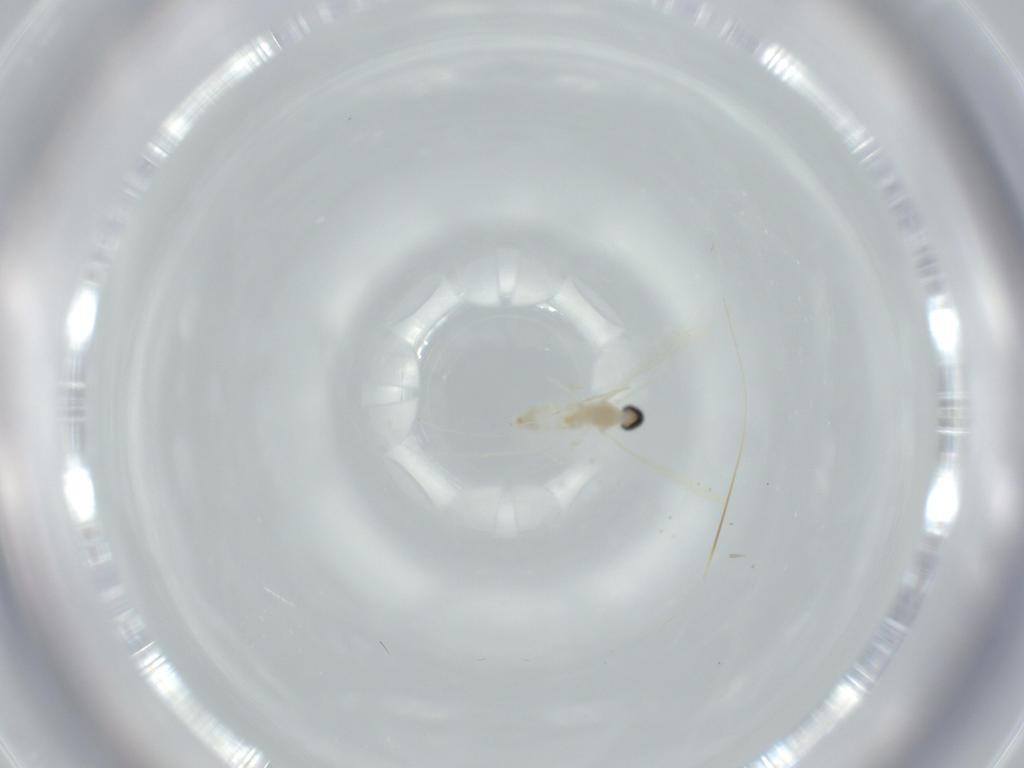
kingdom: Animalia
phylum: Arthropoda
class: Insecta
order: Diptera
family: Cecidomyiidae
